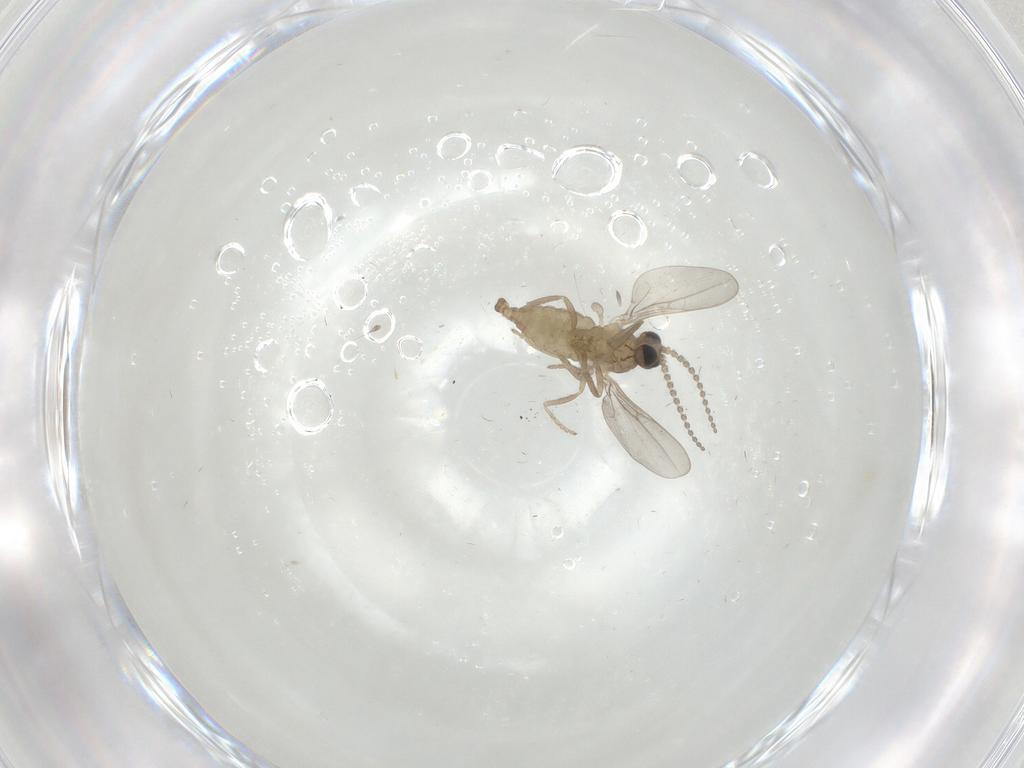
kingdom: Animalia
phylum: Arthropoda
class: Insecta
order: Diptera
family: Cecidomyiidae
